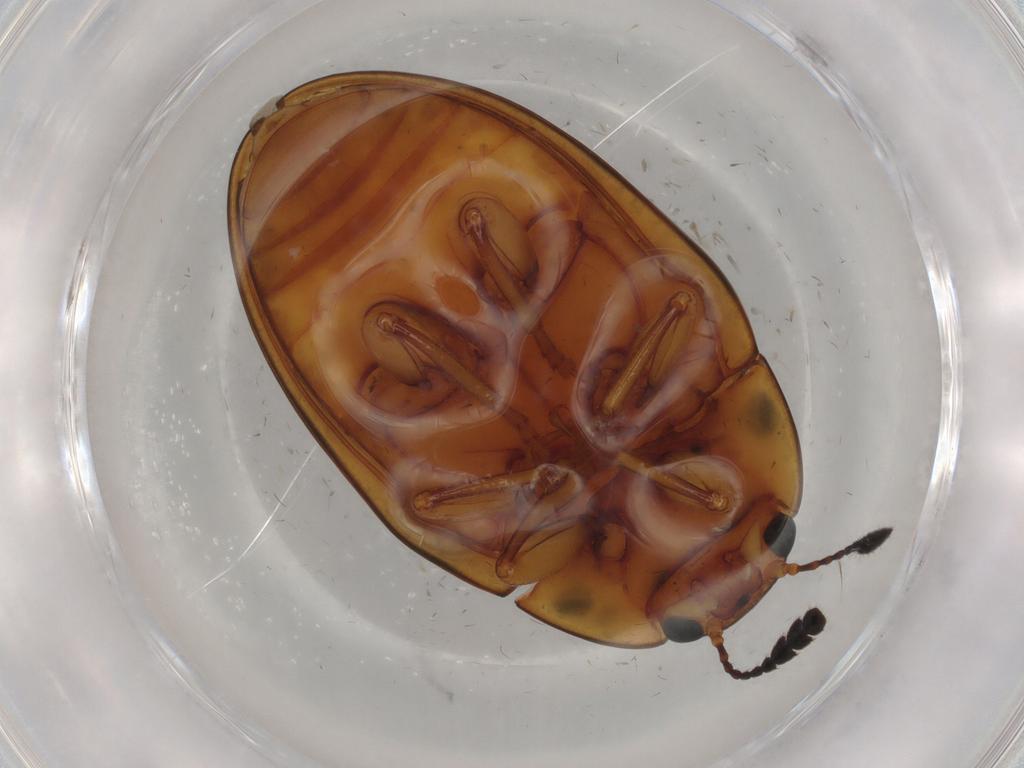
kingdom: Animalia
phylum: Arthropoda
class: Insecta
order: Coleoptera
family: Erotylidae
